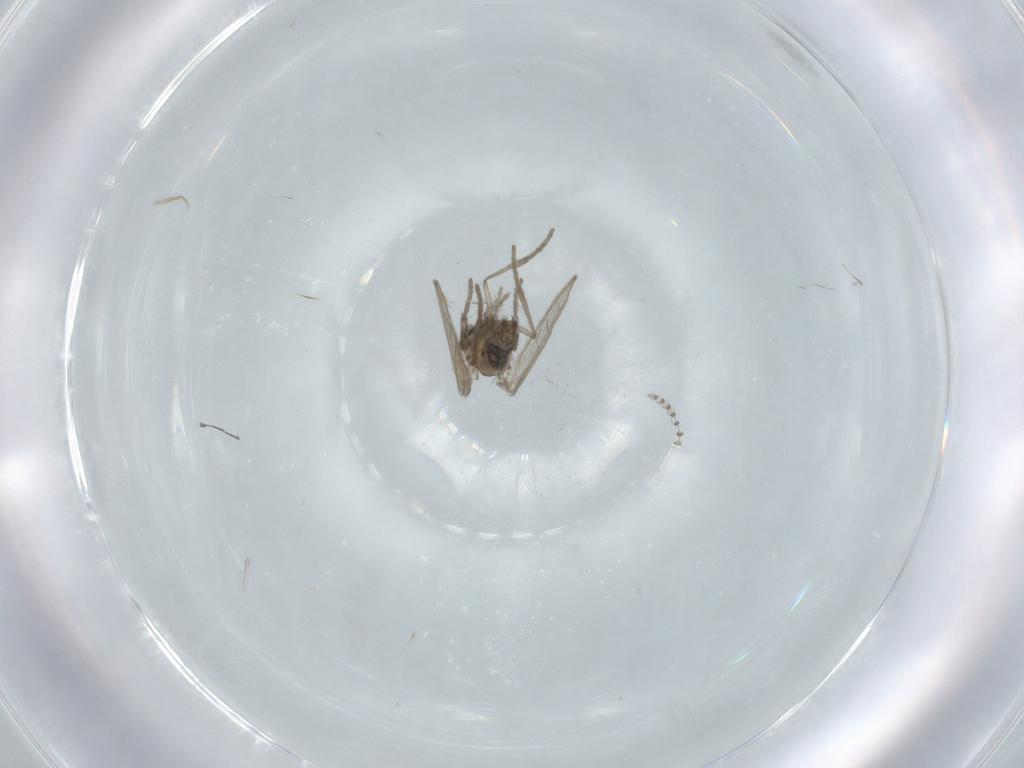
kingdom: Animalia
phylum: Arthropoda
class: Insecta
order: Diptera
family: Psychodidae
